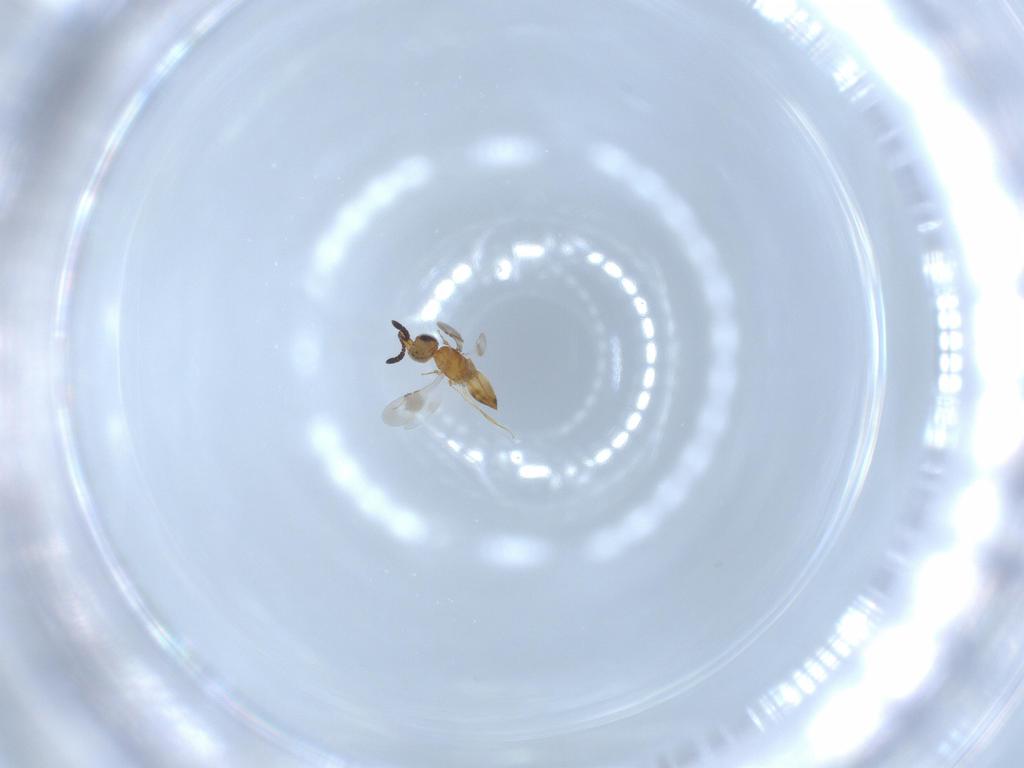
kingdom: Animalia
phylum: Arthropoda
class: Insecta
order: Hymenoptera
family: Ceraphronidae
